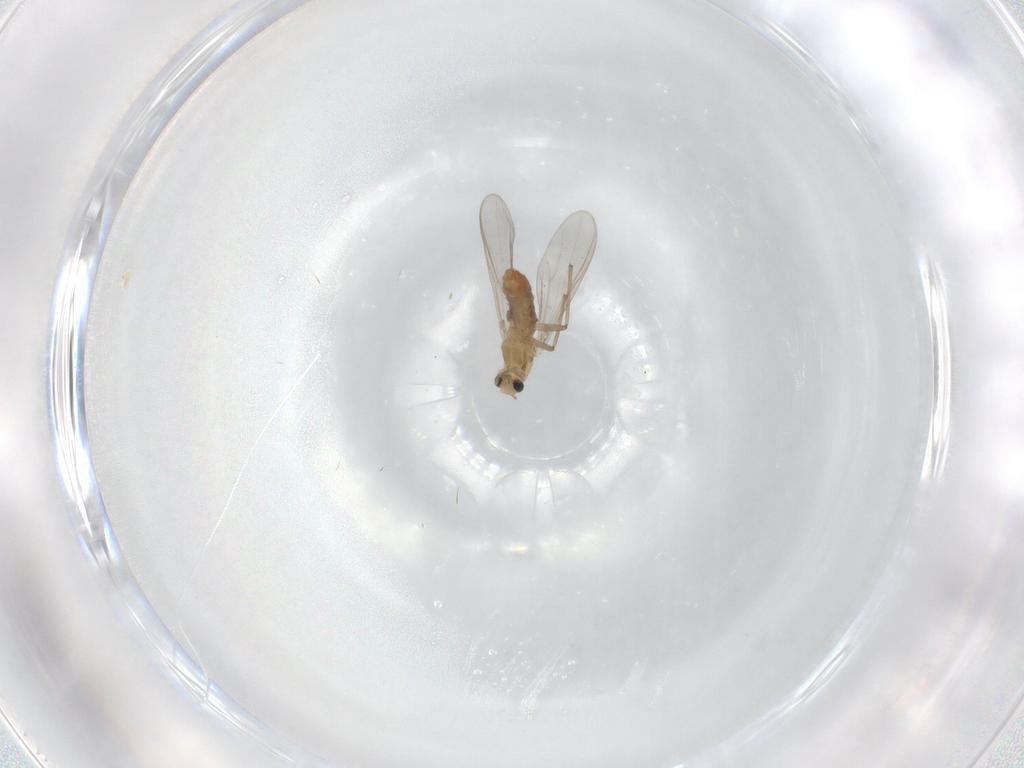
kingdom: Animalia
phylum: Arthropoda
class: Insecta
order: Diptera
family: Chironomidae
